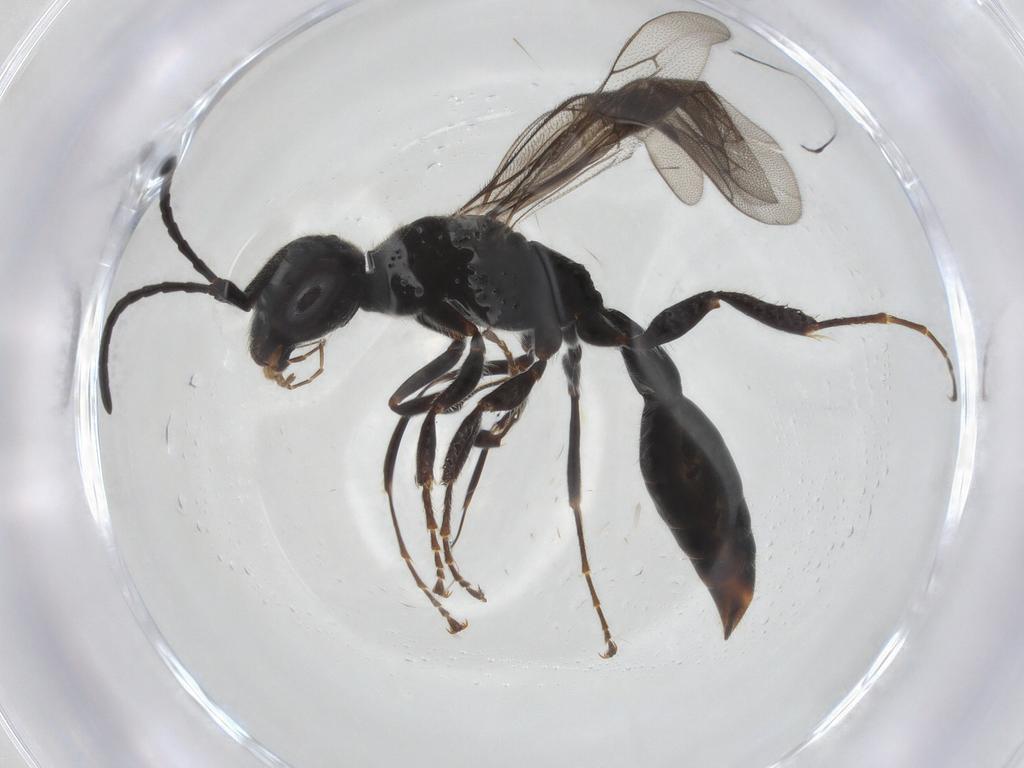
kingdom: Animalia
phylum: Arthropoda
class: Insecta
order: Hymenoptera
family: Thynnidae
